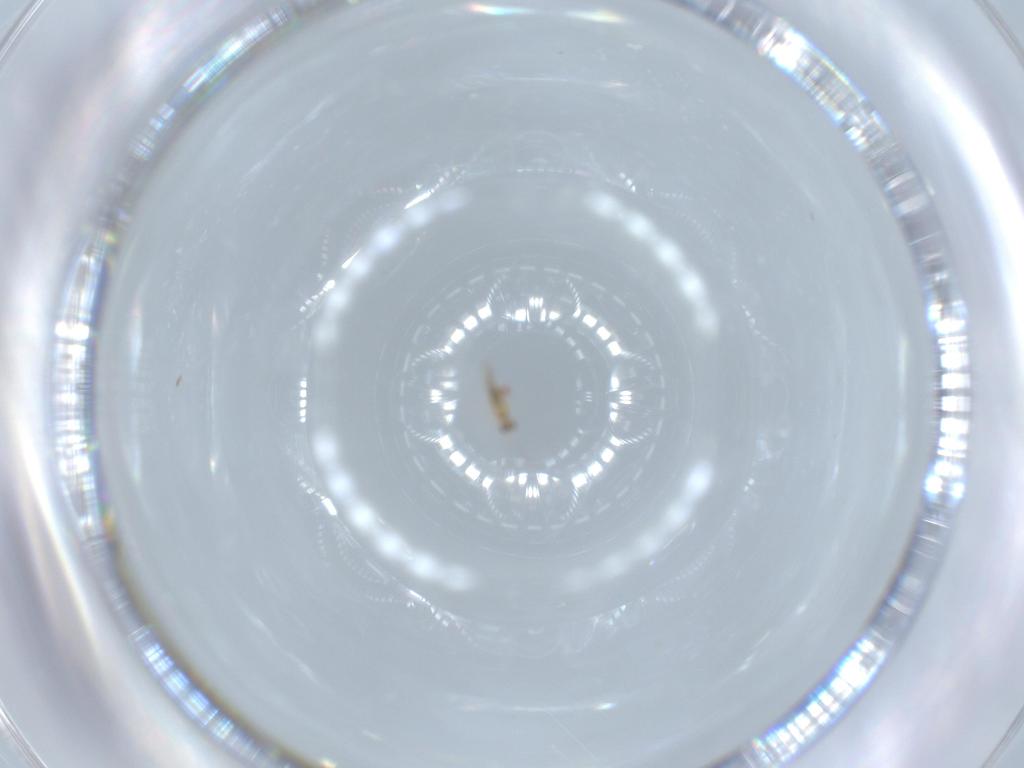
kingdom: Animalia
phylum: Arthropoda
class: Insecta
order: Hymenoptera
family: Mymaridae
